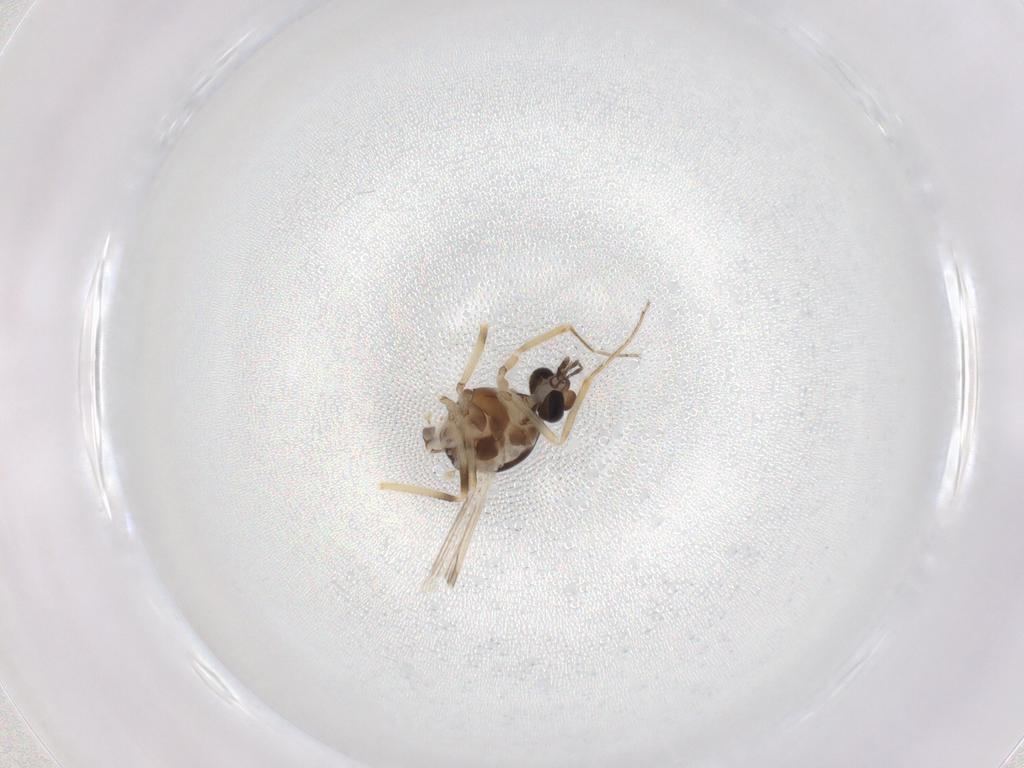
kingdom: Animalia
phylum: Arthropoda
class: Insecta
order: Diptera
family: Ceratopogonidae
